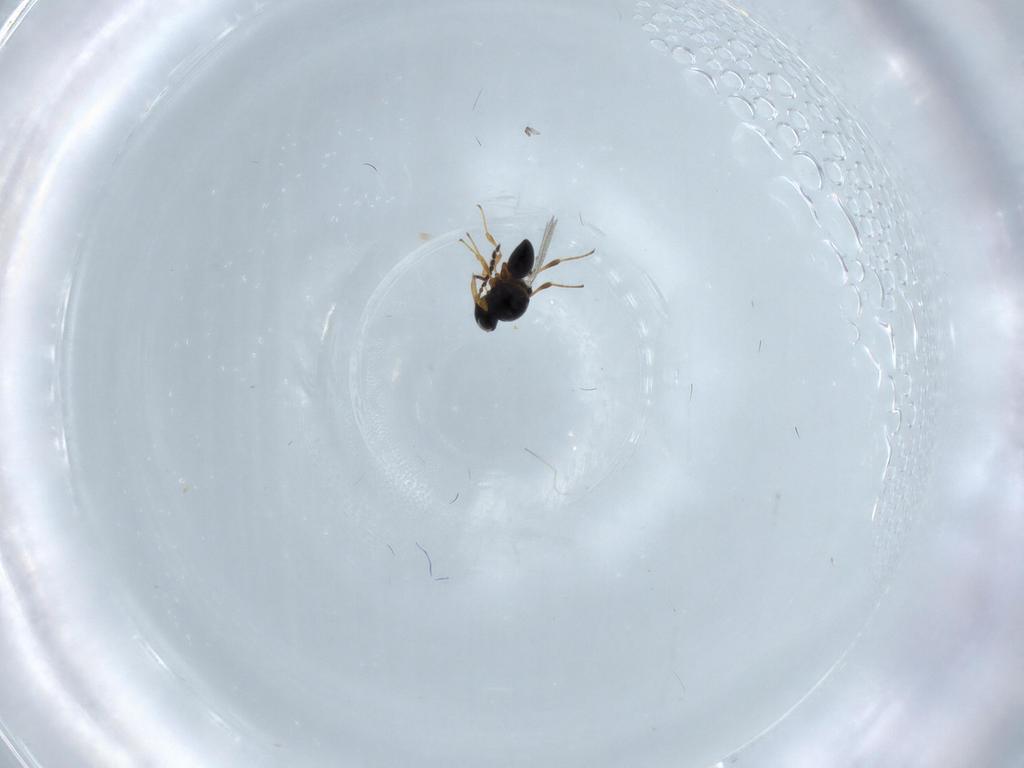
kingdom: Animalia
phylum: Arthropoda
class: Insecta
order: Hymenoptera
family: Platygastridae
